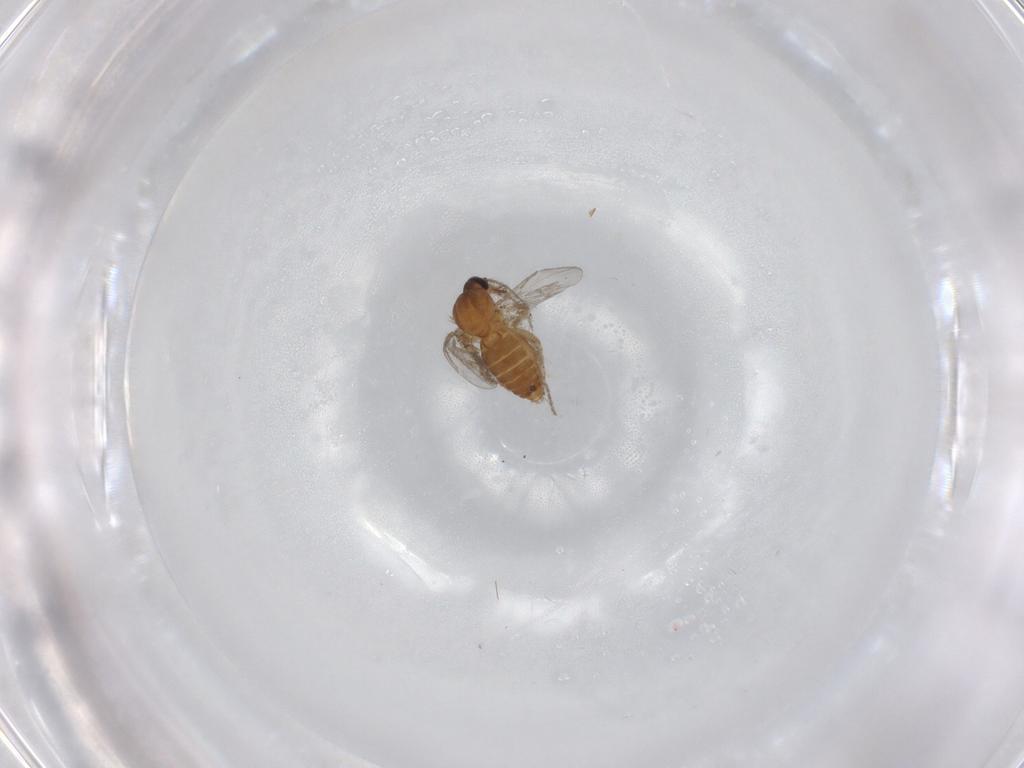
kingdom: Animalia
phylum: Arthropoda
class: Insecta
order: Diptera
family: Ceratopogonidae
